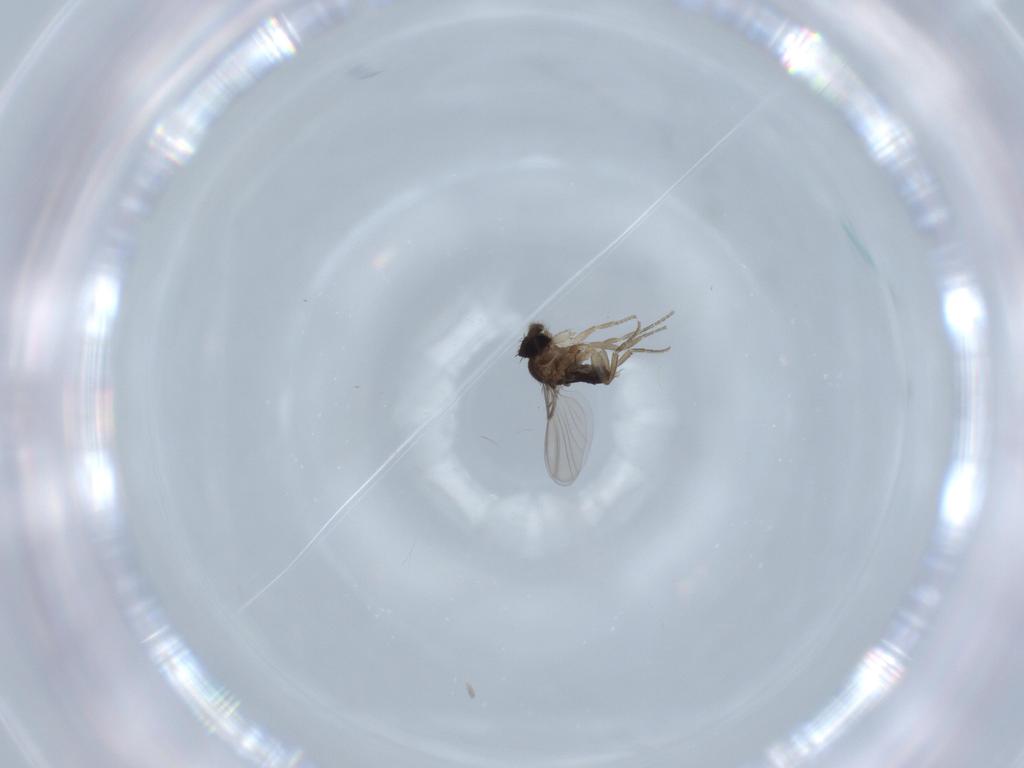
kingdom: Animalia
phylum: Arthropoda
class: Insecta
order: Diptera
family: Phoridae
